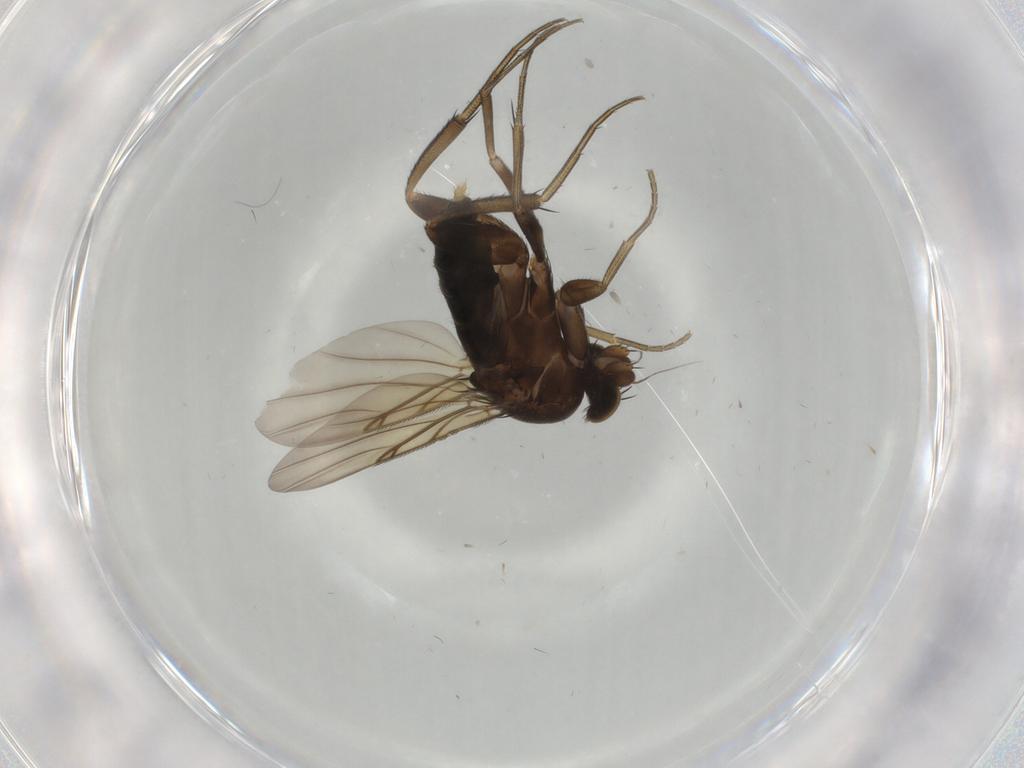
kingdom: Animalia
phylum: Arthropoda
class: Insecta
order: Diptera
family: Phoridae
